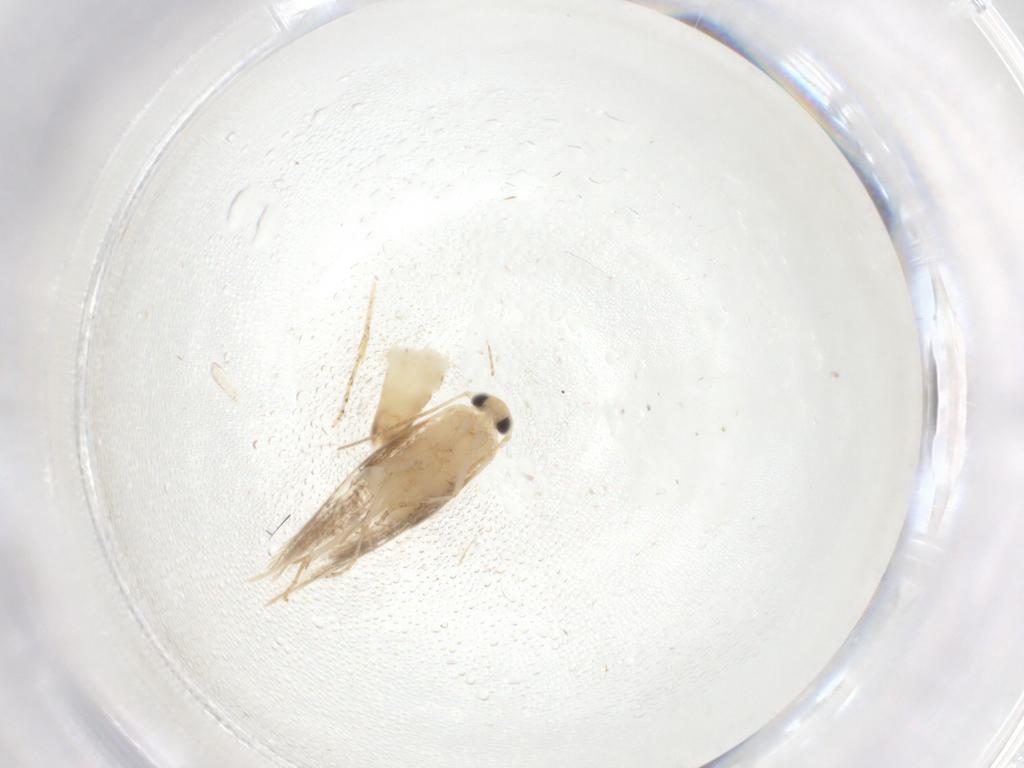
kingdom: Animalia
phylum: Arthropoda
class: Insecta
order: Lepidoptera
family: Bucculatricidae
